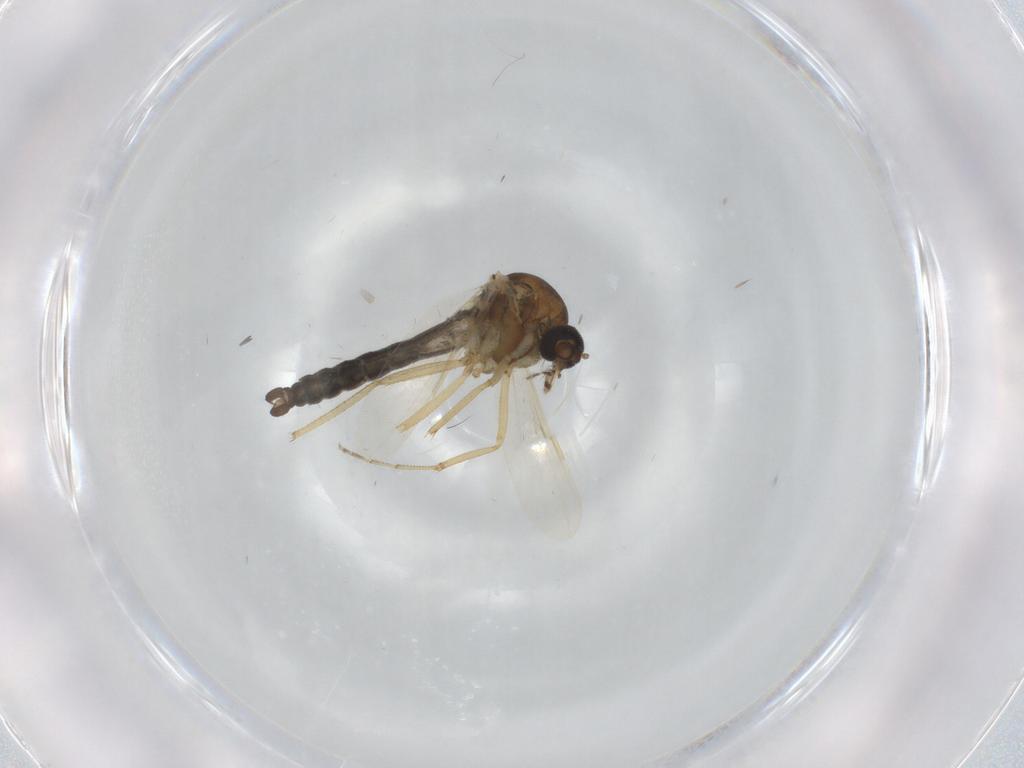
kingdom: Animalia
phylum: Arthropoda
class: Insecta
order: Diptera
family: Ceratopogonidae
